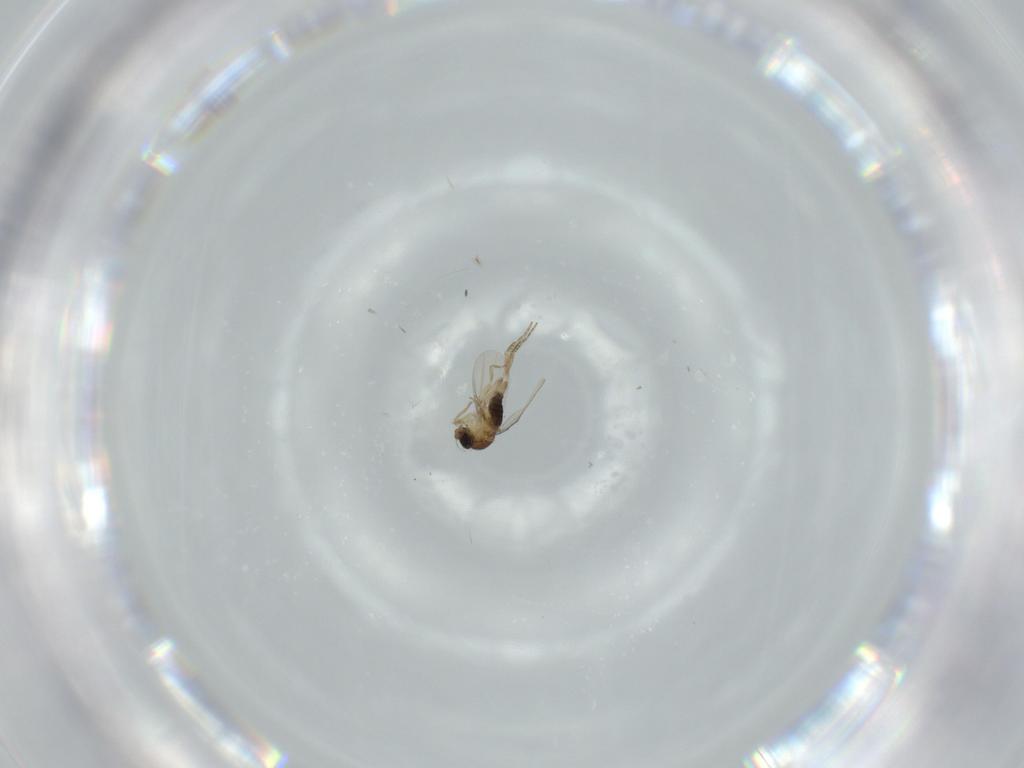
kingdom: Animalia
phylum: Arthropoda
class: Insecta
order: Diptera
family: Phoridae
